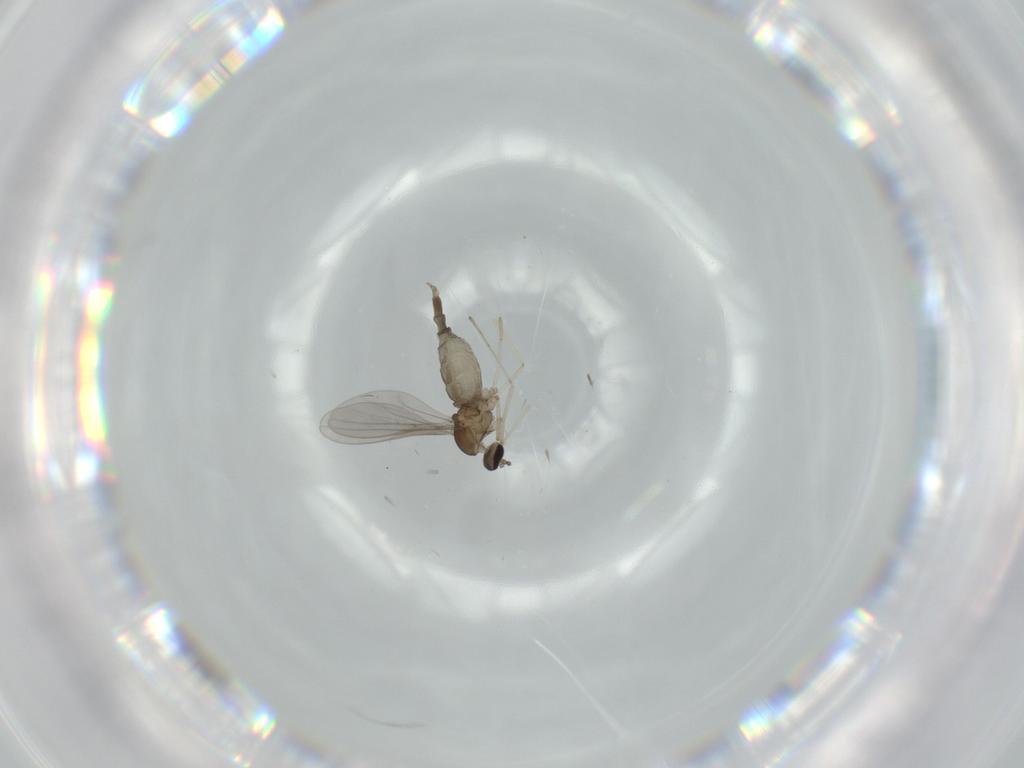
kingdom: Animalia
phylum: Arthropoda
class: Insecta
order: Diptera
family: Cecidomyiidae
